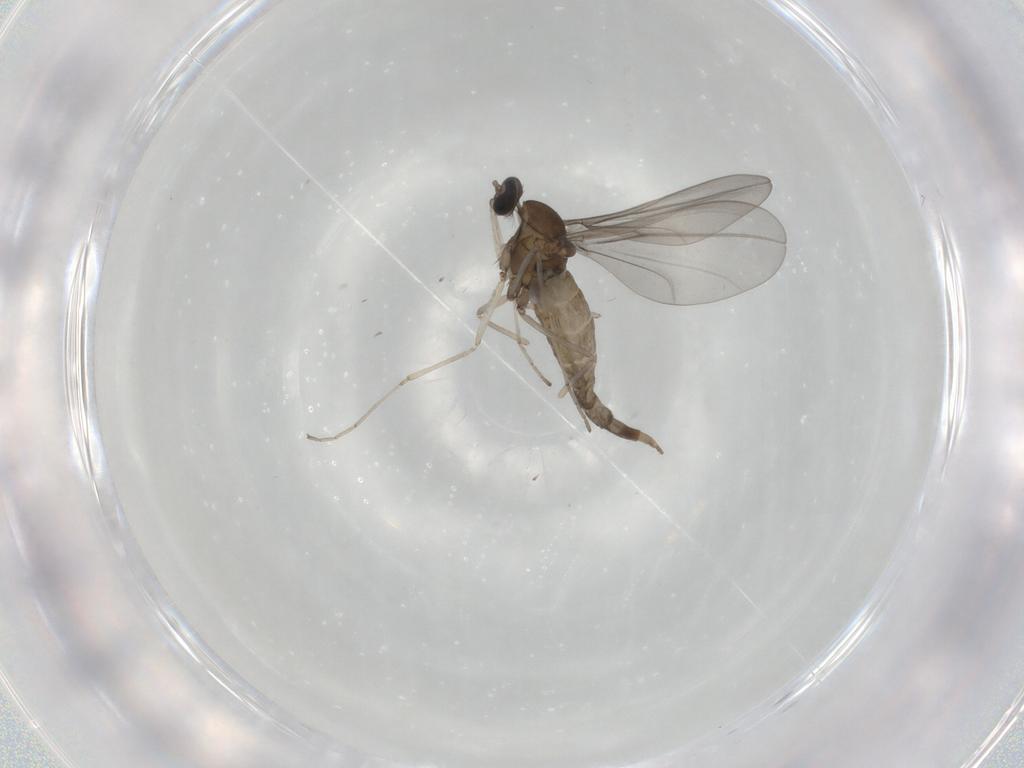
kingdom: Animalia
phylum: Arthropoda
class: Insecta
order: Diptera
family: Cecidomyiidae
